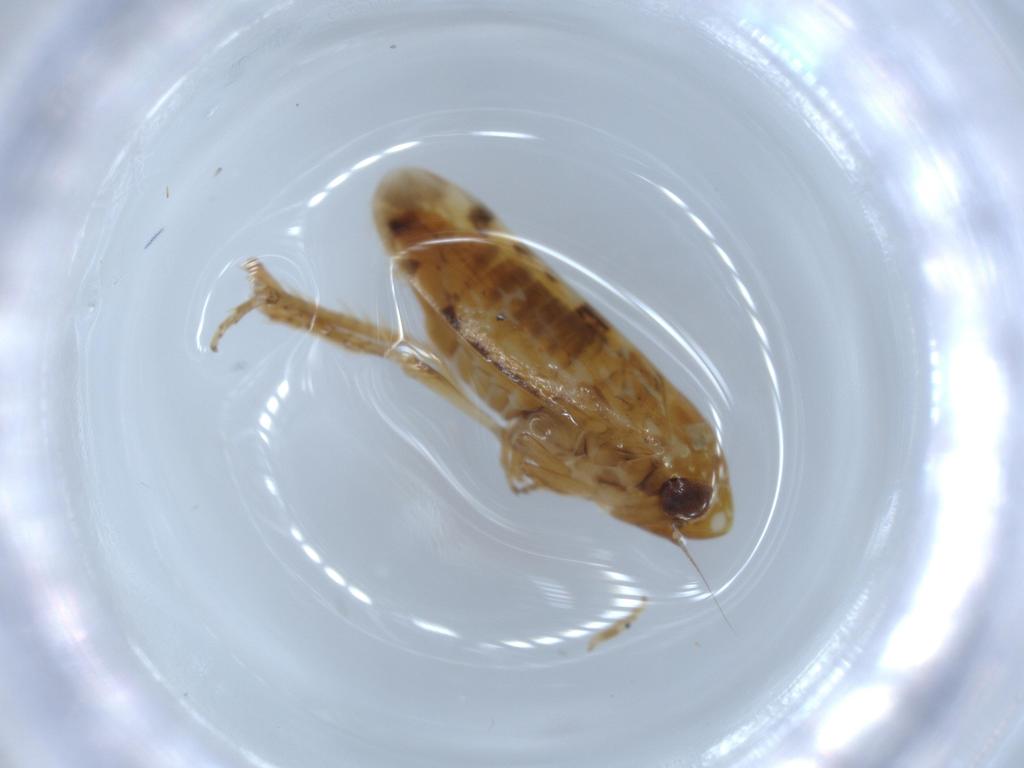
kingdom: Animalia
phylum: Arthropoda
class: Insecta
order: Hemiptera
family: Cicadellidae
